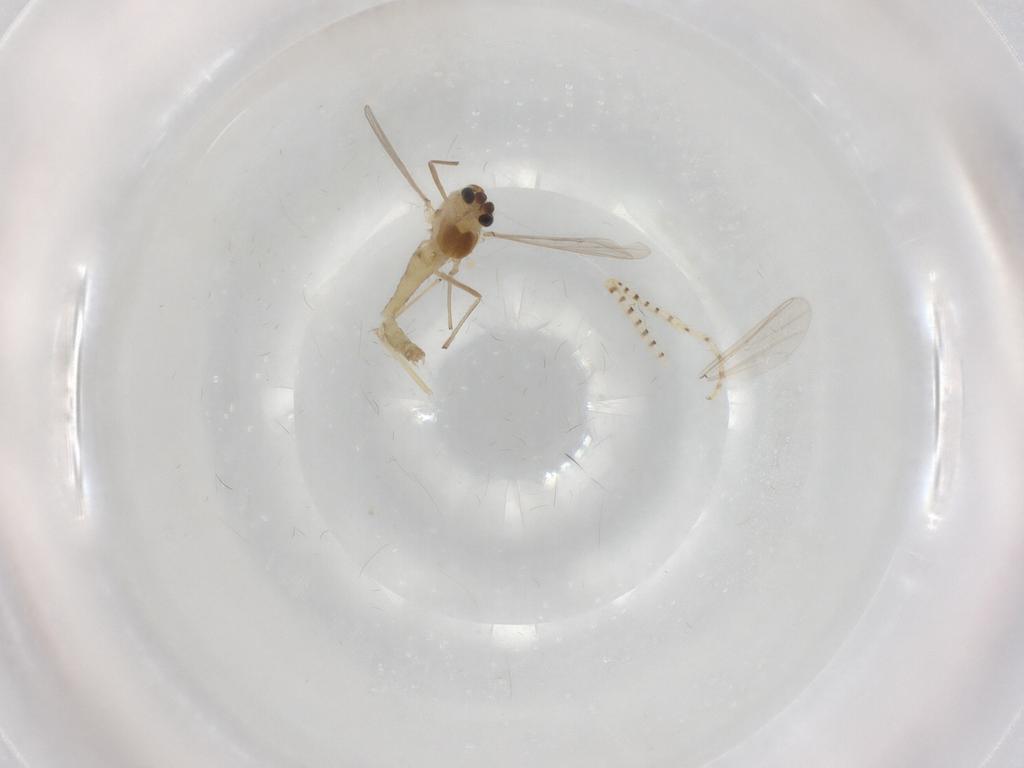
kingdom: Animalia
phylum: Arthropoda
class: Insecta
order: Diptera
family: Chironomidae
